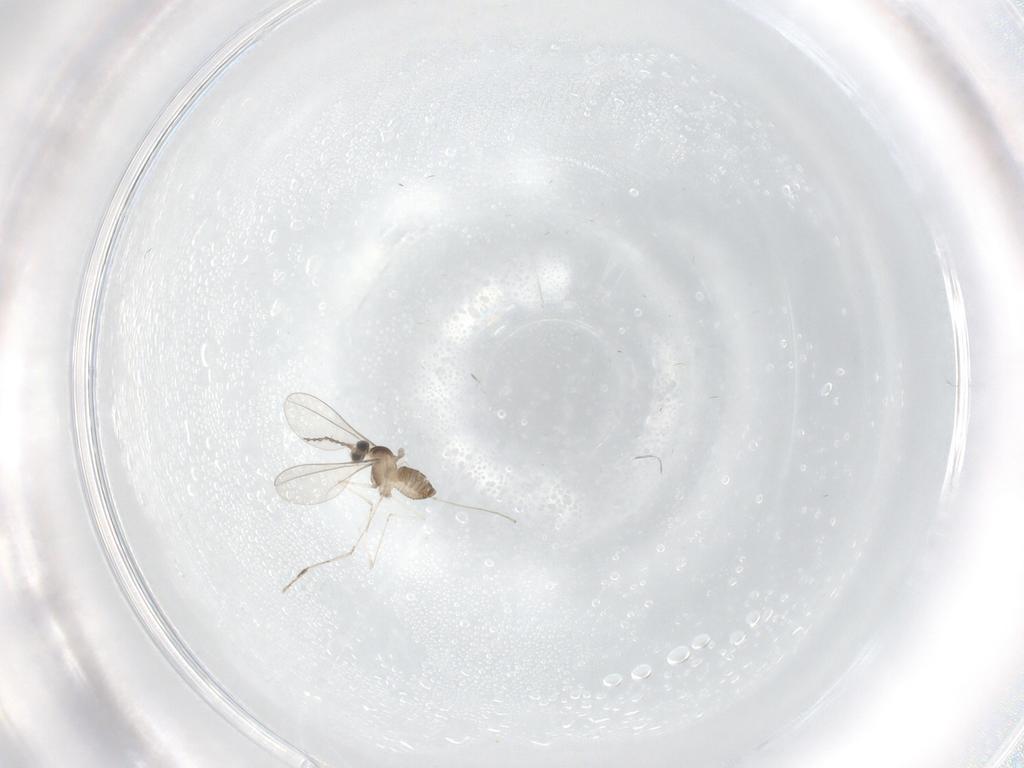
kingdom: Animalia
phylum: Arthropoda
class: Insecta
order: Diptera
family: Cecidomyiidae
